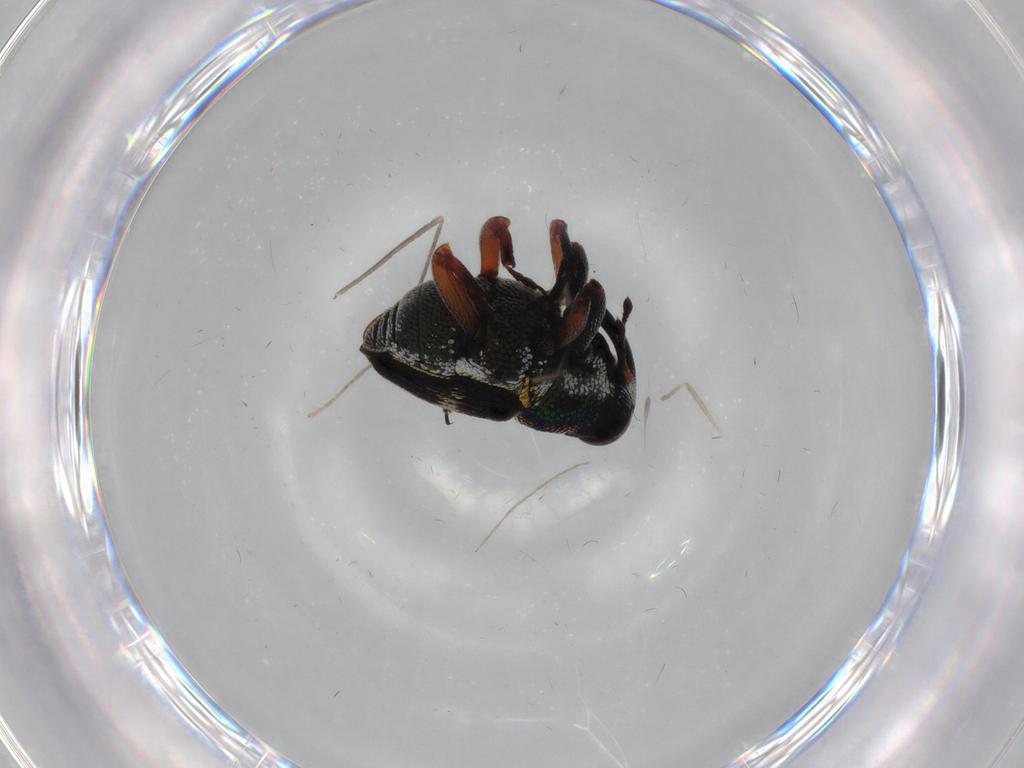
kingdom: Animalia
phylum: Arthropoda
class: Insecta
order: Coleoptera
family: Curculionidae
